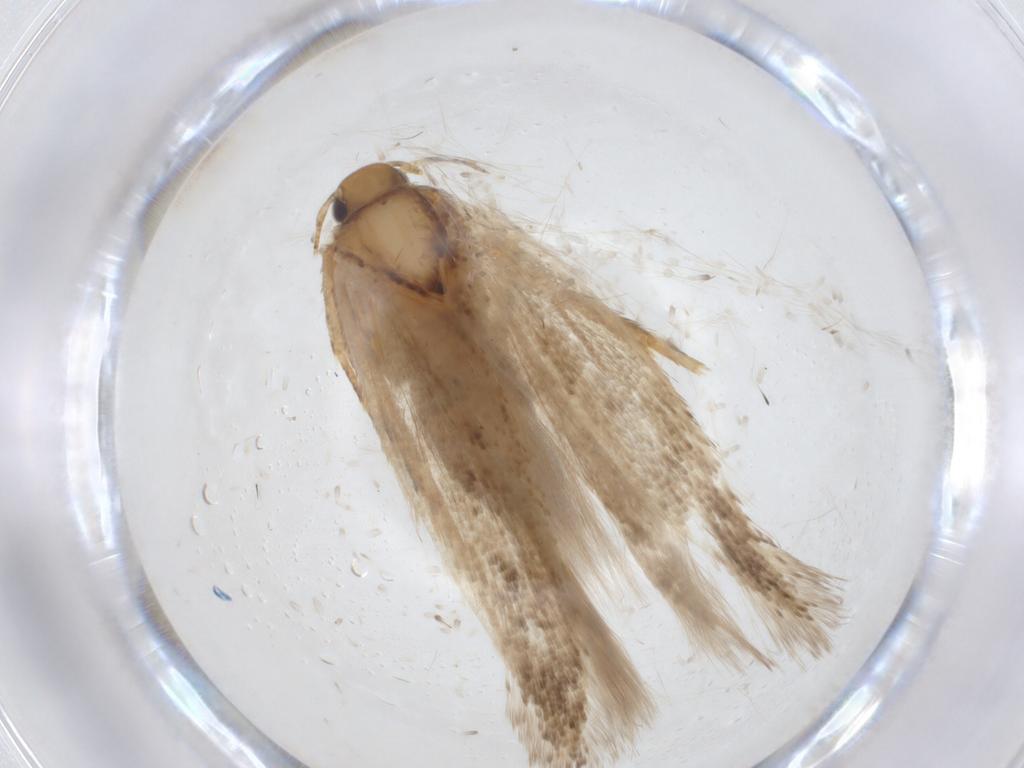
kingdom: Animalia
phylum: Arthropoda
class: Insecta
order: Lepidoptera
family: Gelechiidae
